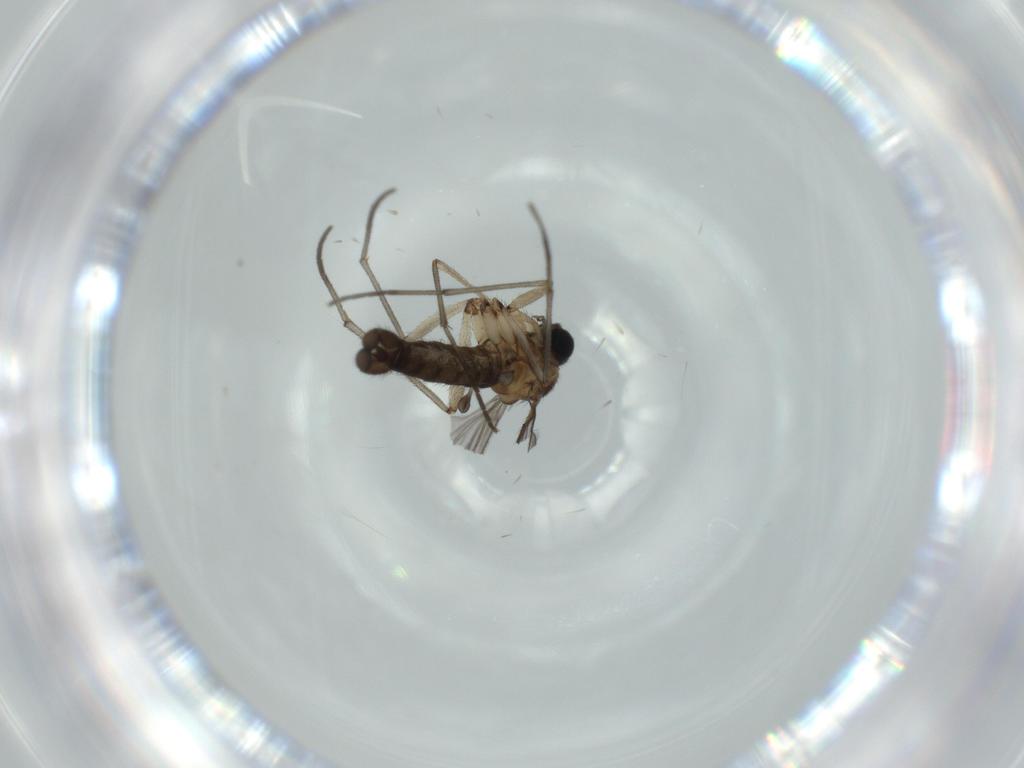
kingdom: Animalia
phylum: Arthropoda
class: Insecta
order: Diptera
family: Sciaridae
